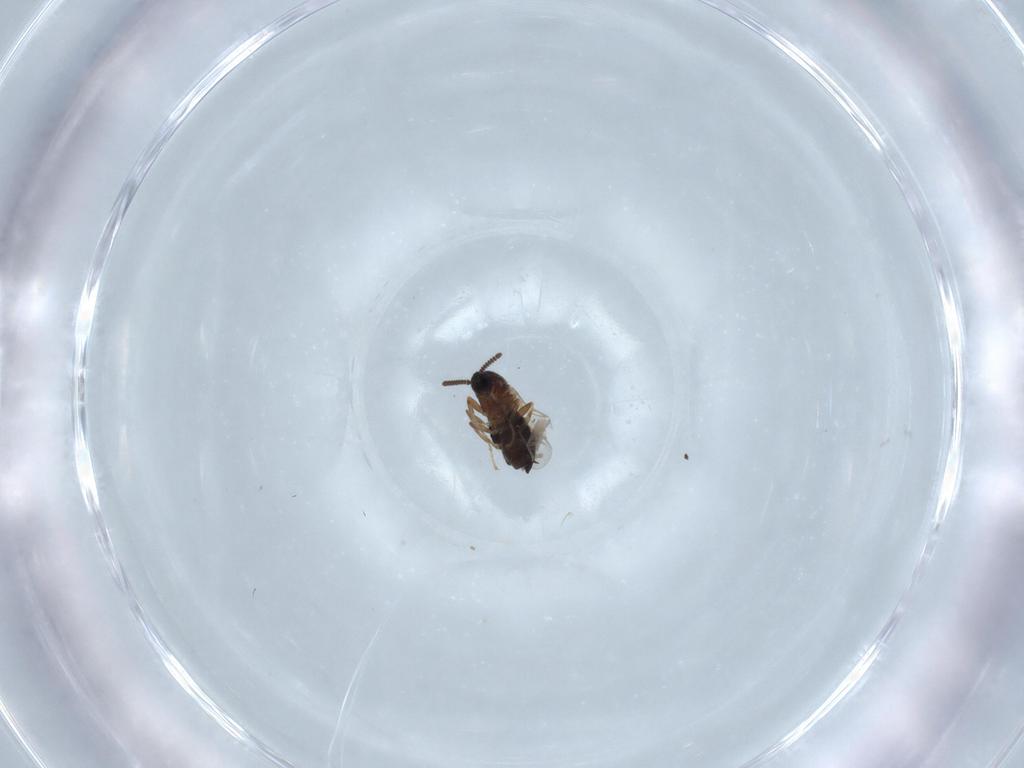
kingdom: Animalia
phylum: Arthropoda
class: Insecta
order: Diptera
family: Scatopsidae
